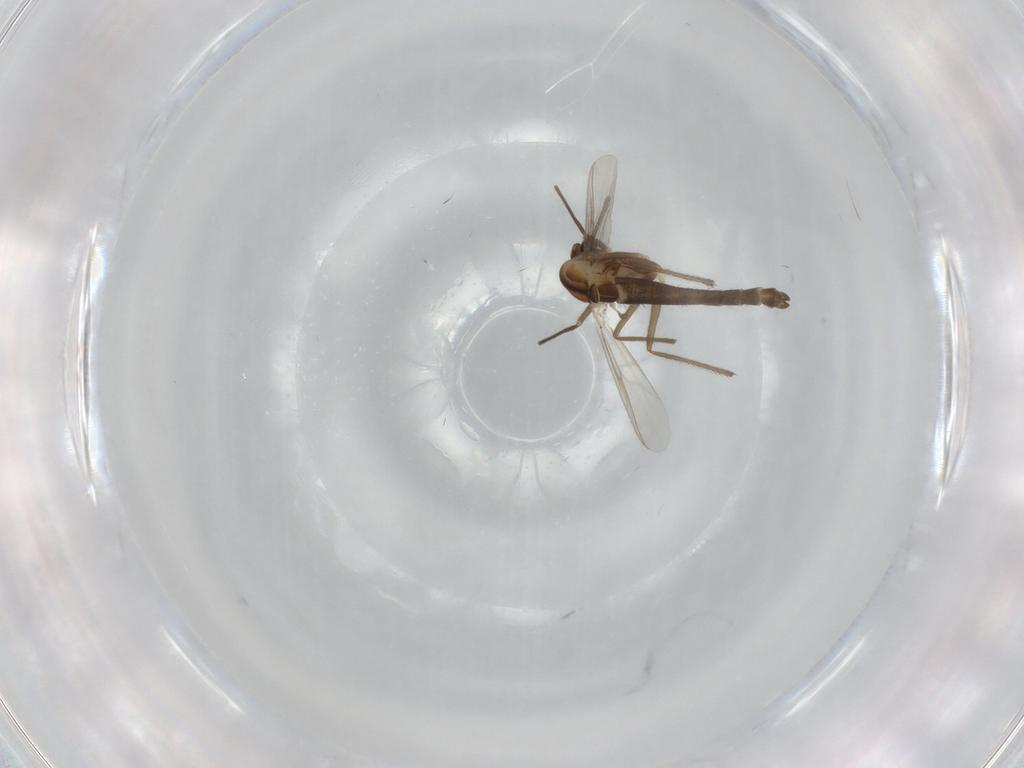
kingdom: Animalia
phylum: Arthropoda
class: Insecta
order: Diptera
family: Chironomidae
